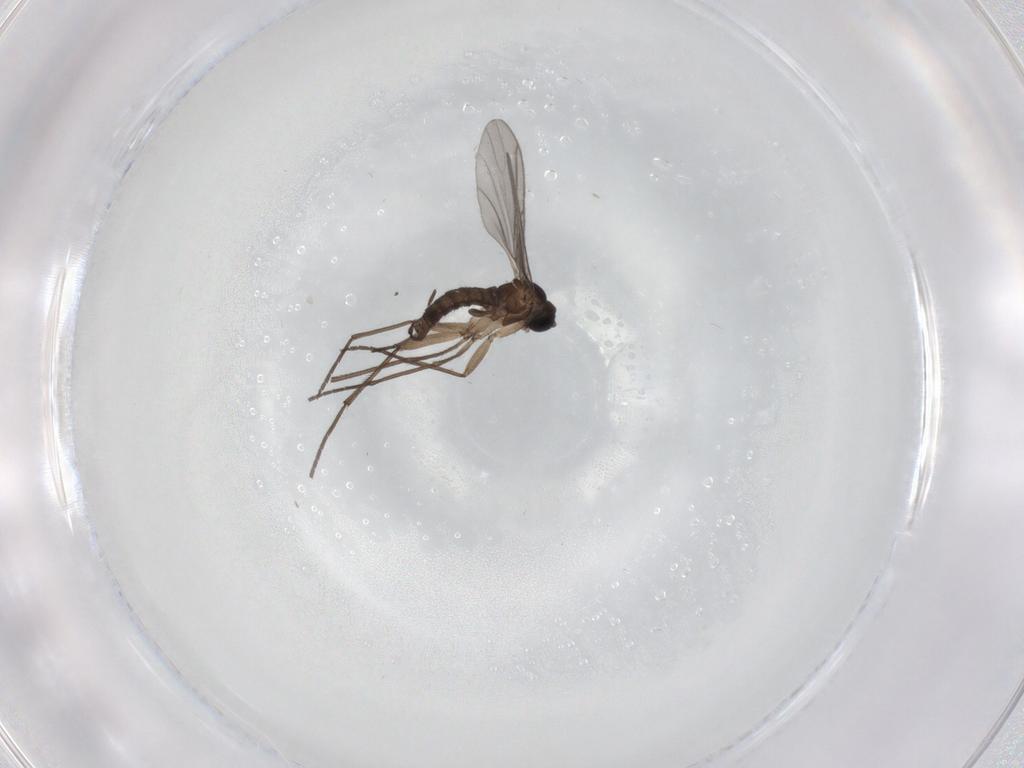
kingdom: Animalia
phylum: Arthropoda
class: Insecta
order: Diptera
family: Sciaridae
